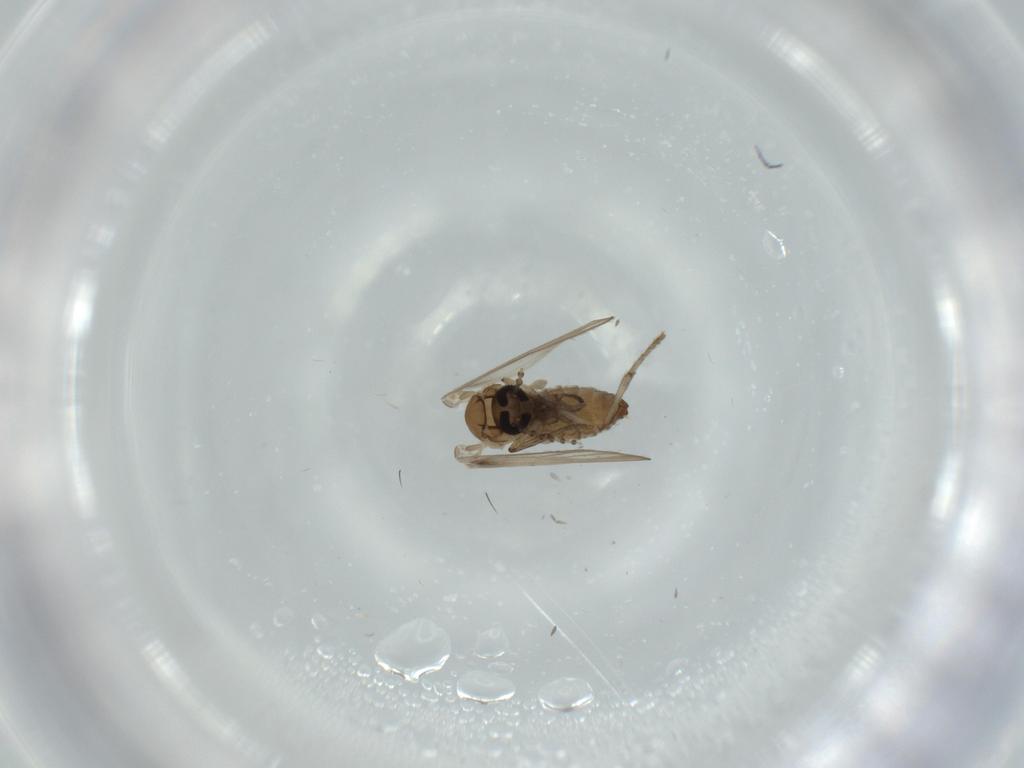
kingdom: Animalia
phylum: Arthropoda
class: Insecta
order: Diptera
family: Psychodidae
